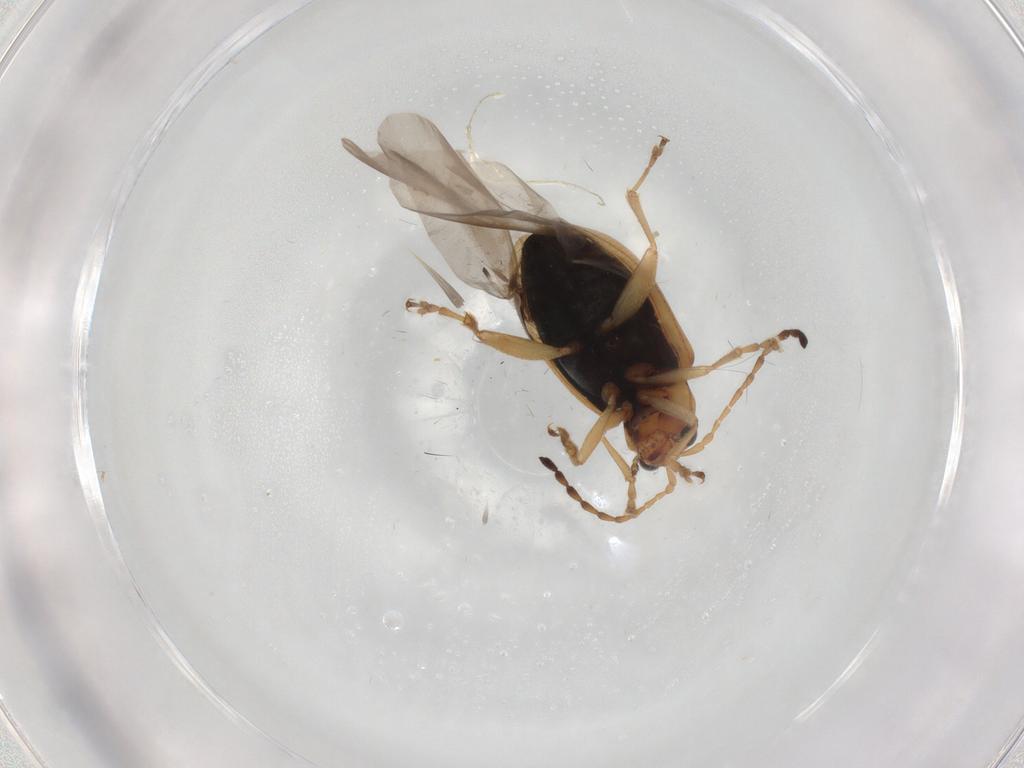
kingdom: Animalia
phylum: Arthropoda
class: Insecta
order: Coleoptera
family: Chrysomelidae
